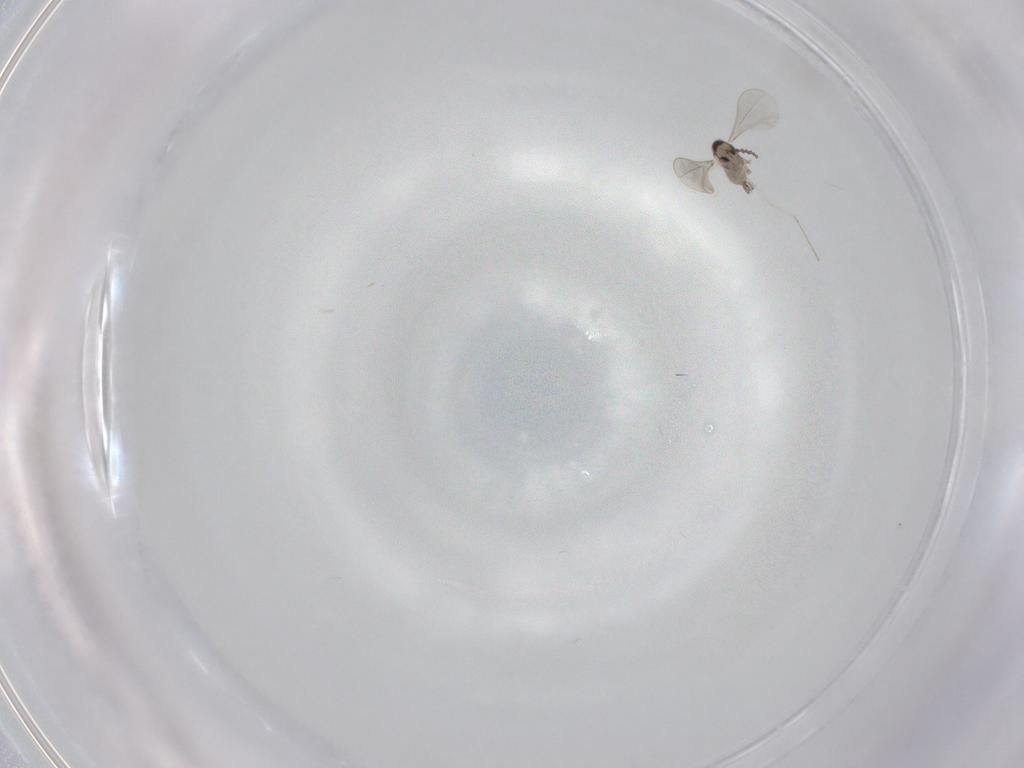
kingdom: Animalia
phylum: Arthropoda
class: Insecta
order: Diptera
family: Cecidomyiidae
